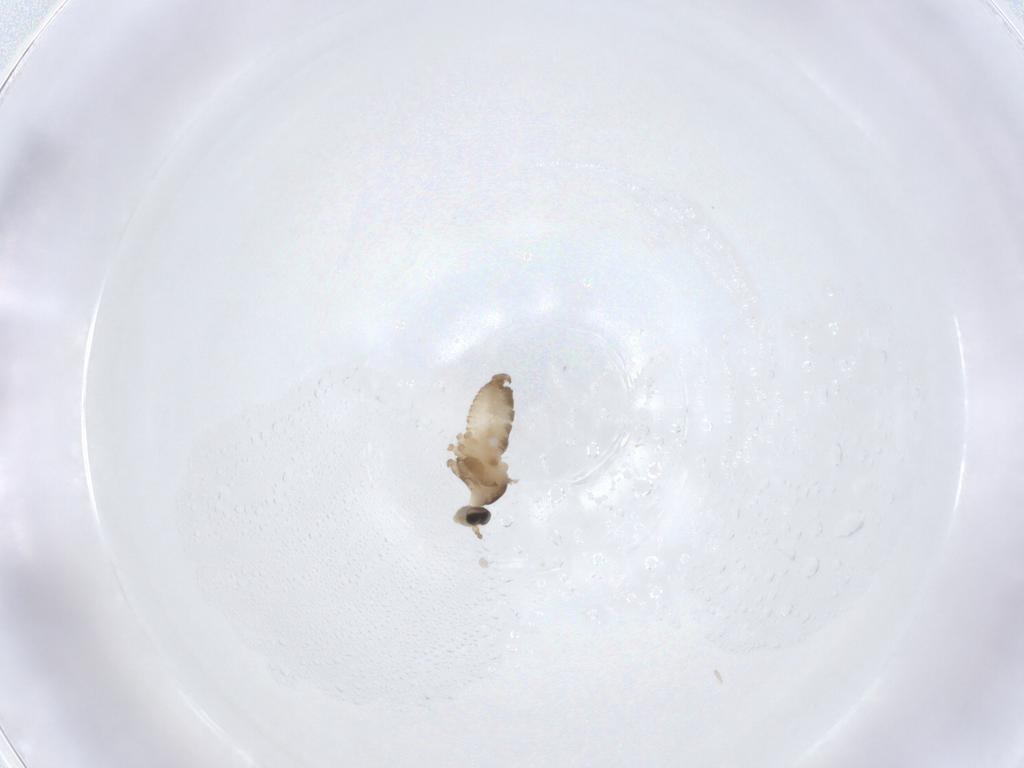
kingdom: Animalia
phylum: Arthropoda
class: Insecta
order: Diptera
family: Cecidomyiidae
